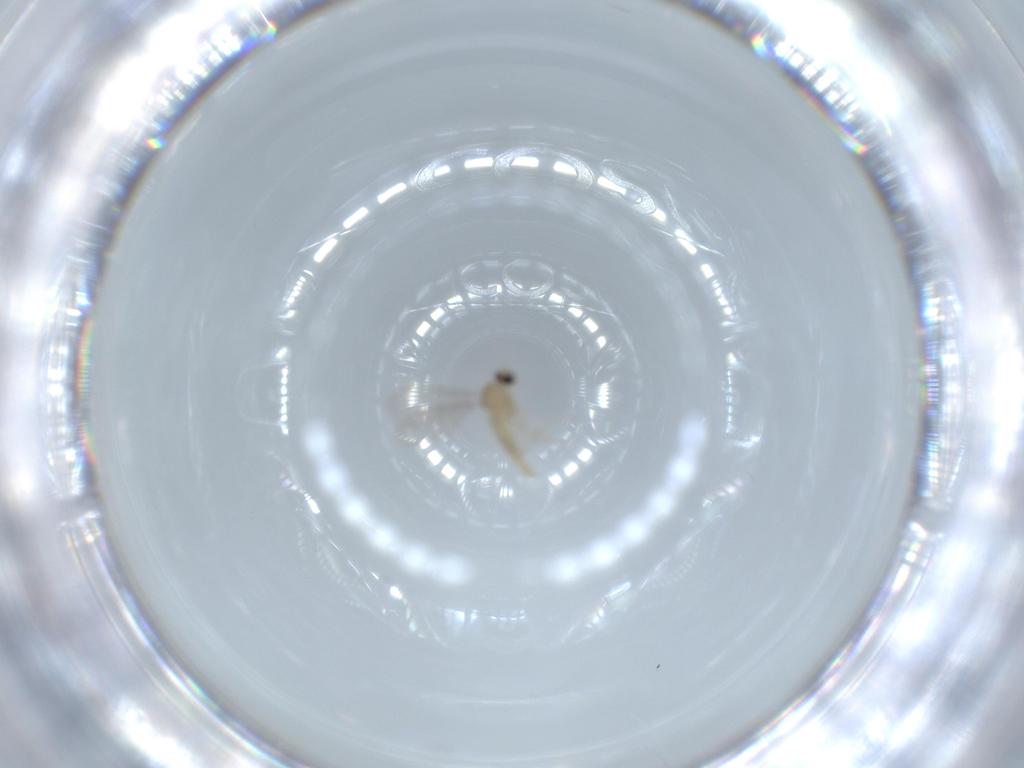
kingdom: Animalia
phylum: Arthropoda
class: Insecta
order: Diptera
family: Cecidomyiidae
